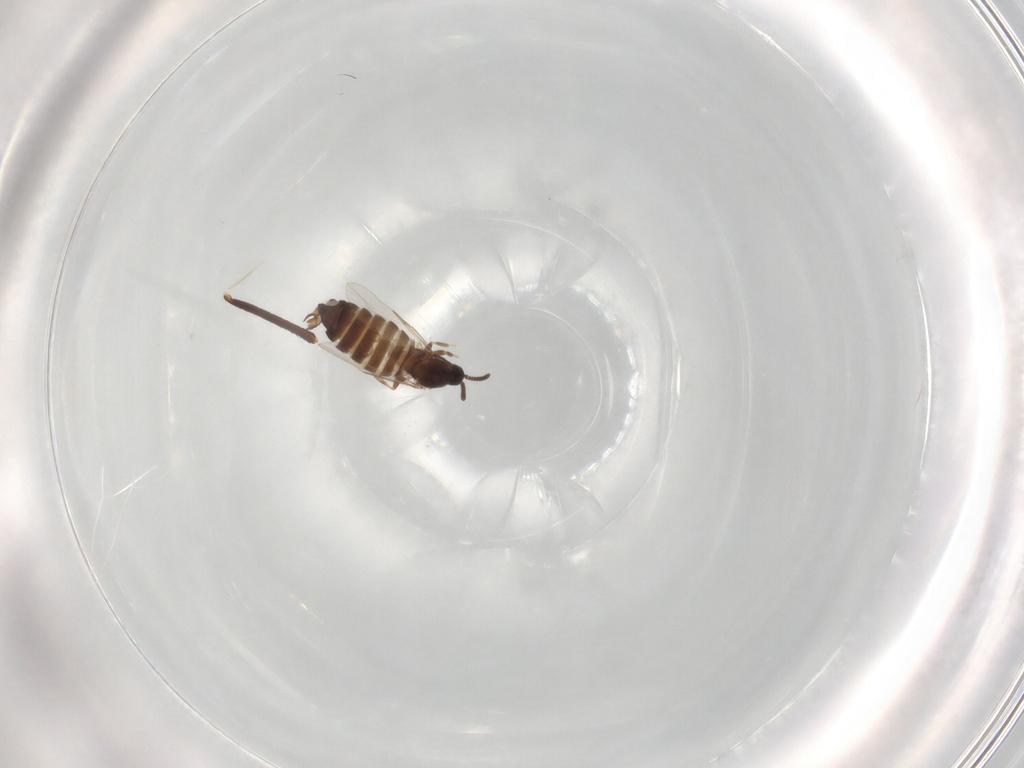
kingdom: Animalia
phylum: Arthropoda
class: Insecta
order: Diptera
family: Scatopsidae
